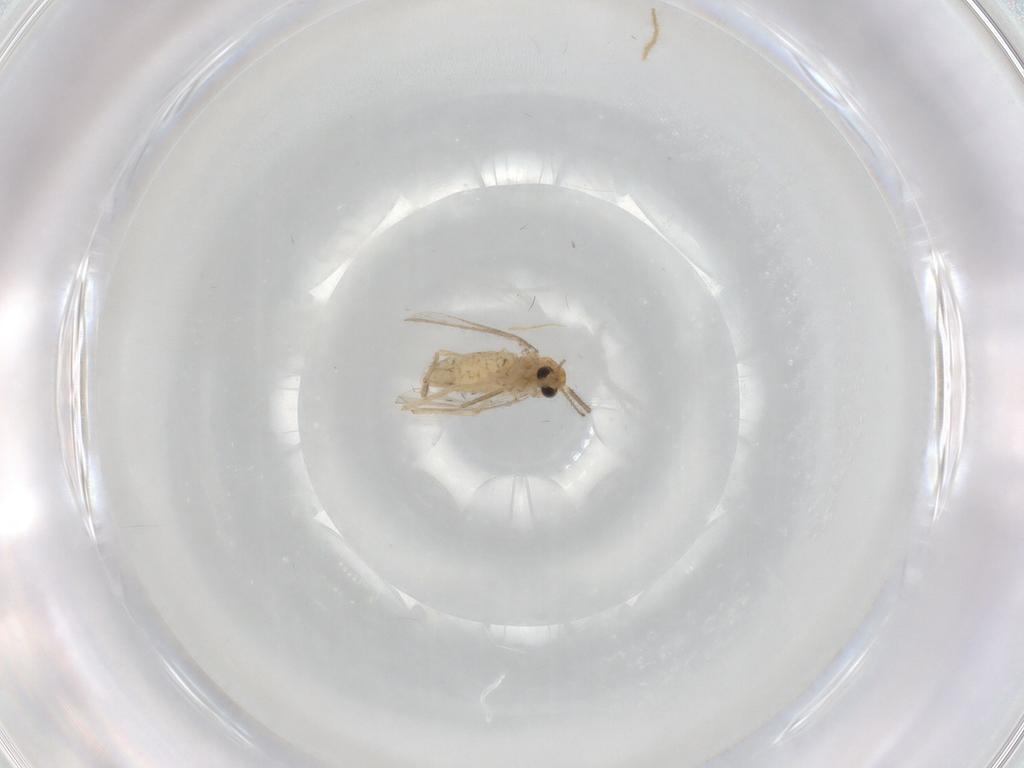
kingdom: Animalia
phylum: Arthropoda
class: Insecta
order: Diptera
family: Chironomidae
